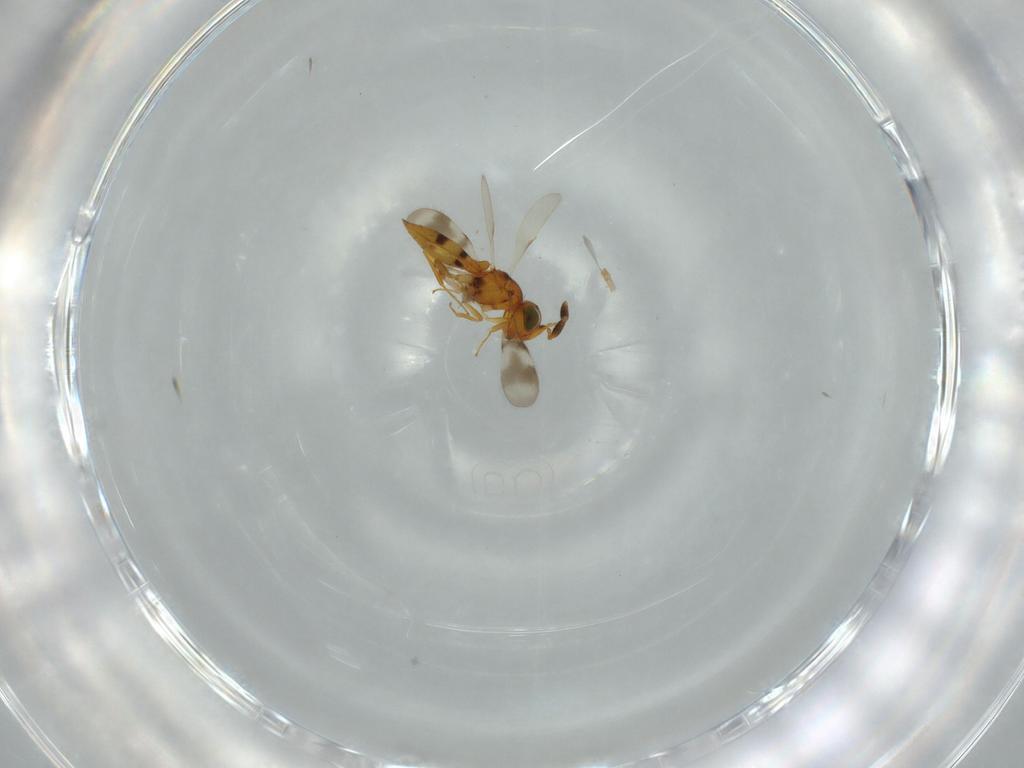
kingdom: Animalia
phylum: Arthropoda
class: Insecta
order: Hymenoptera
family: Scelionidae
